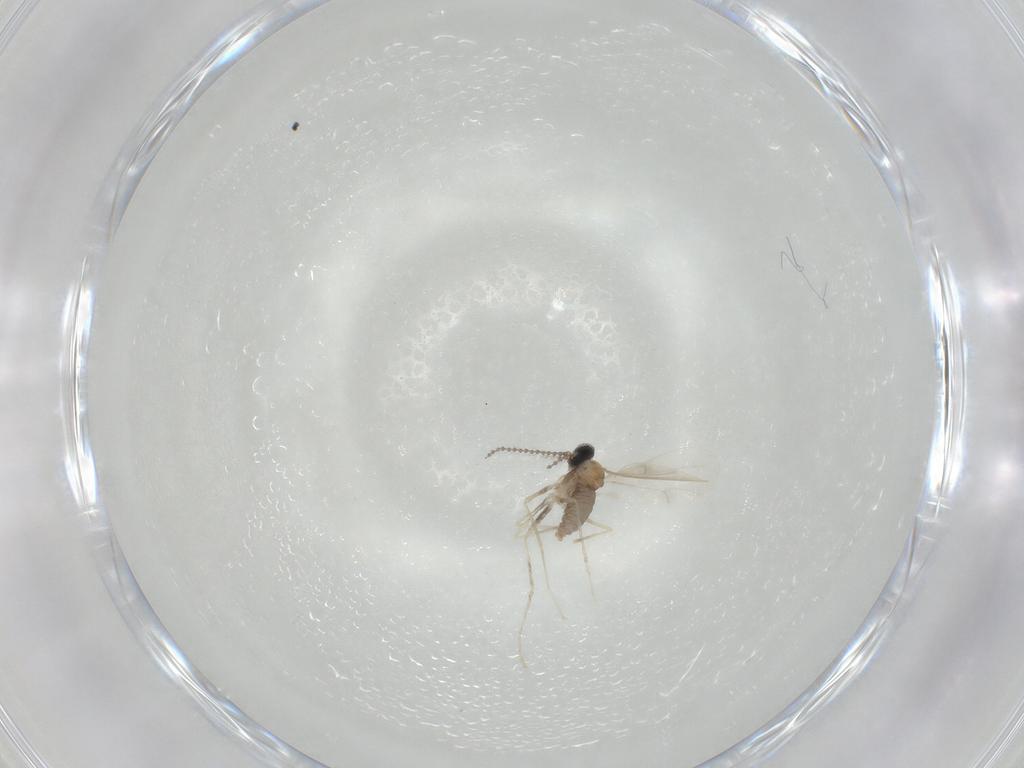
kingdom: Animalia
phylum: Arthropoda
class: Insecta
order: Diptera
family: Cecidomyiidae
